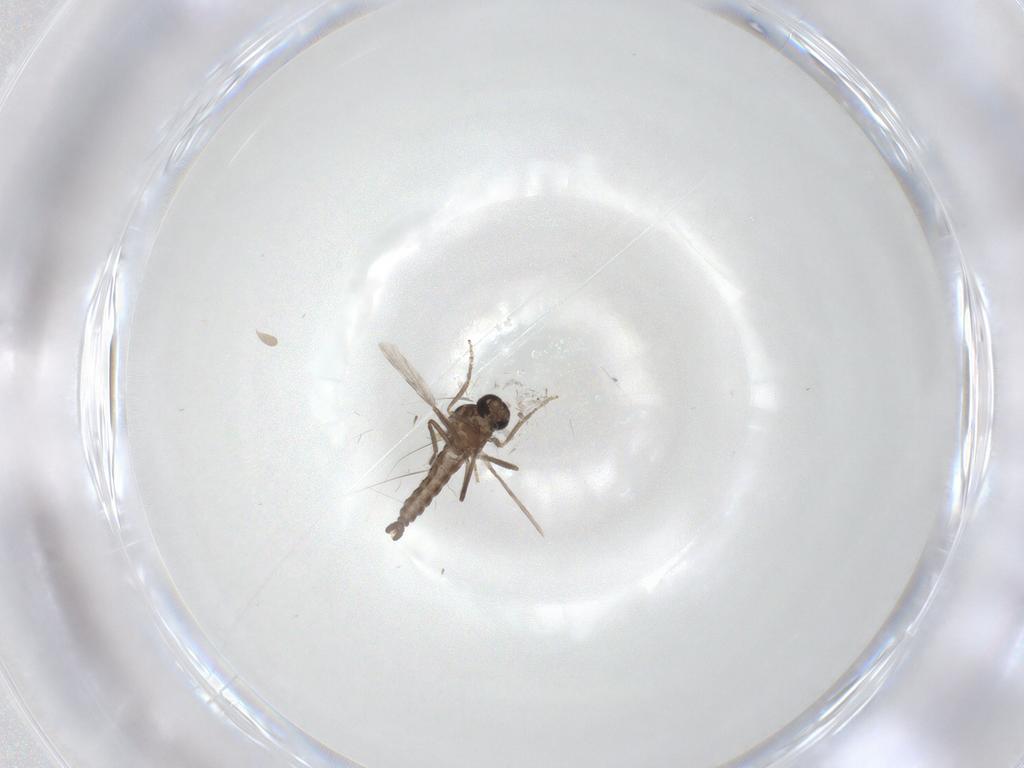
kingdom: Animalia
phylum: Arthropoda
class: Insecta
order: Diptera
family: Ceratopogonidae
